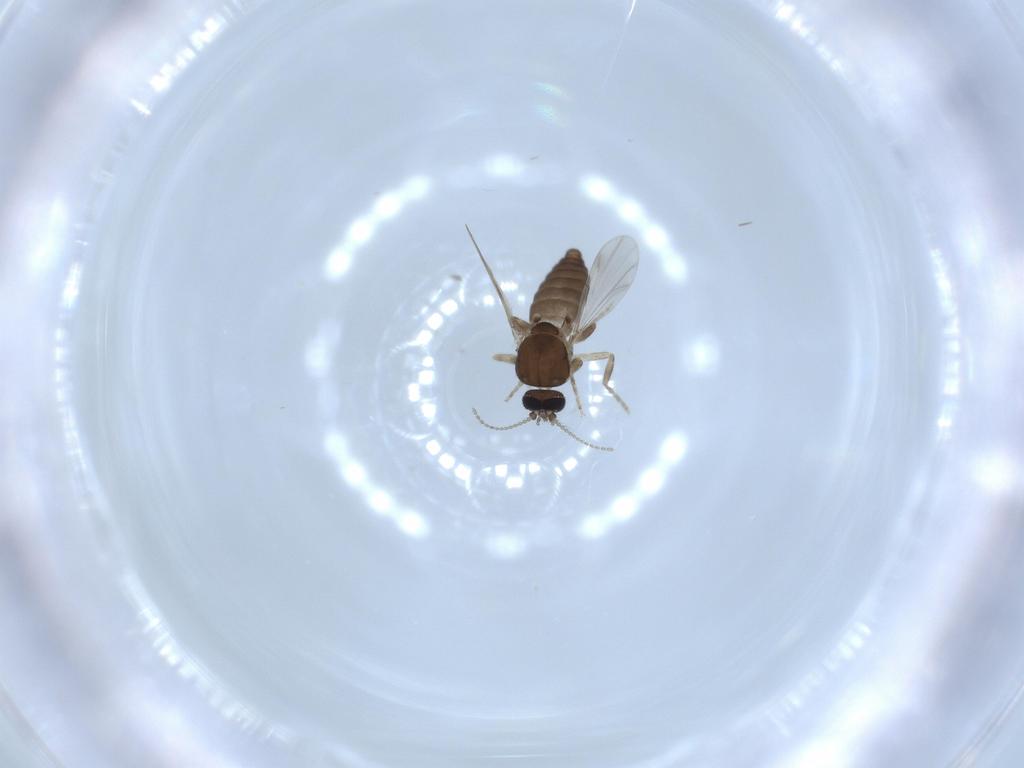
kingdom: Animalia
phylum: Arthropoda
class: Insecta
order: Diptera
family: Ceratopogonidae
